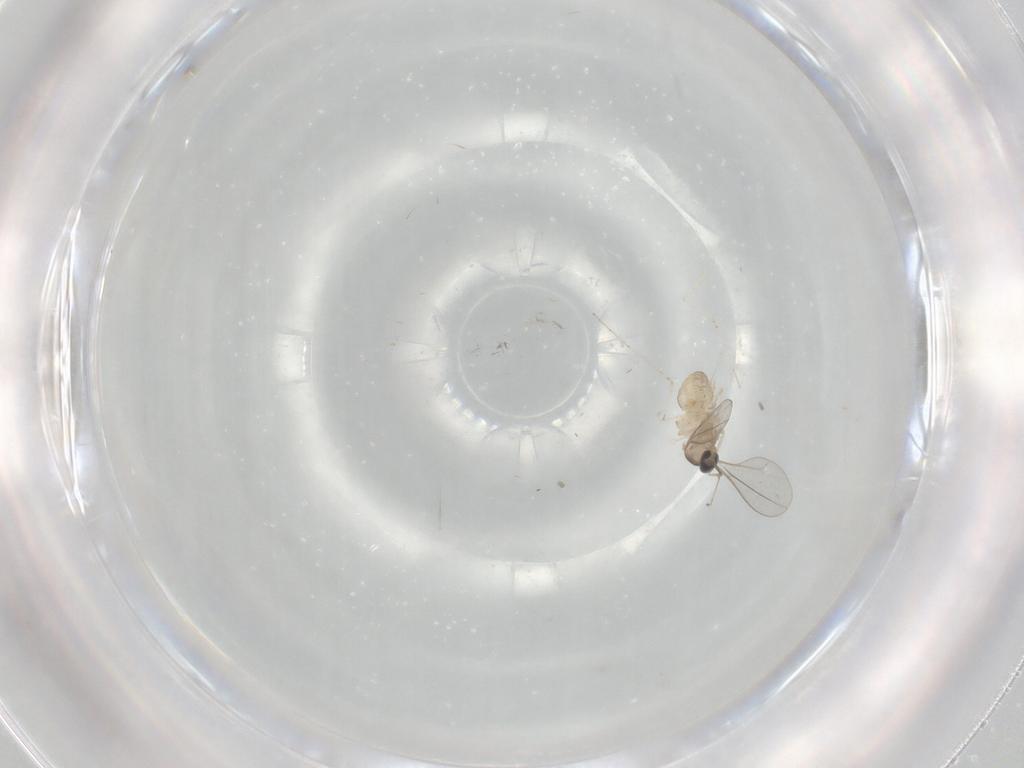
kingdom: Animalia
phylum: Arthropoda
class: Insecta
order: Diptera
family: Cecidomyiidae
